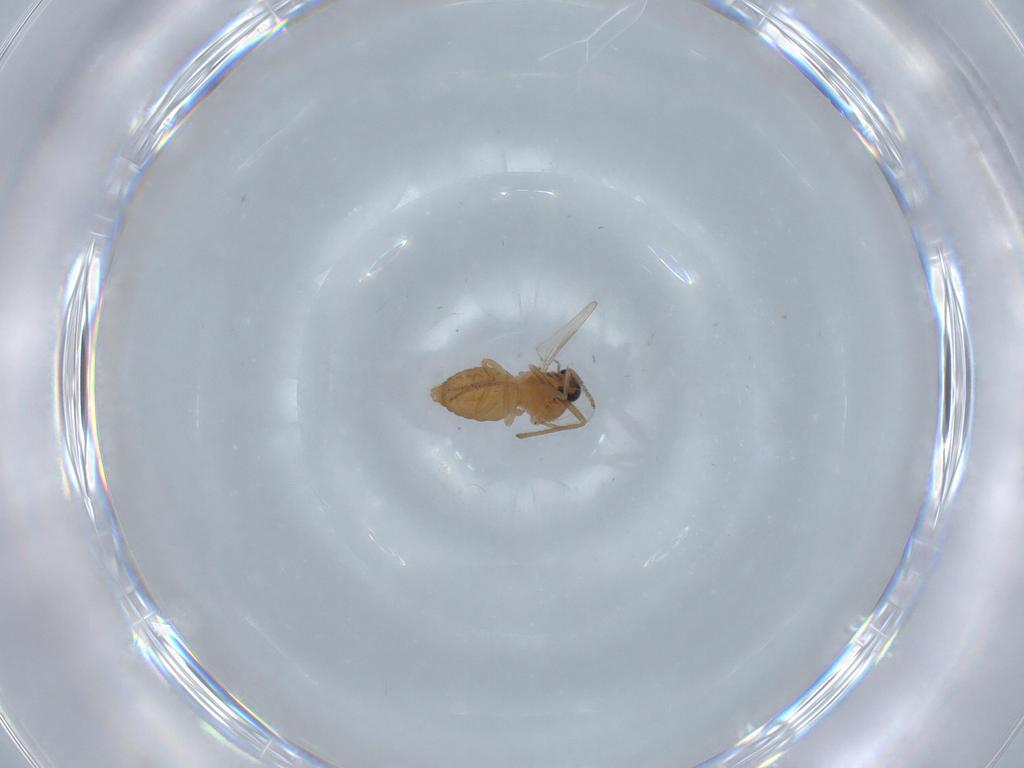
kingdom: Animalia
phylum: Arthropoda
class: Insecta
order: Diptera
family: Ceratopogonidae
